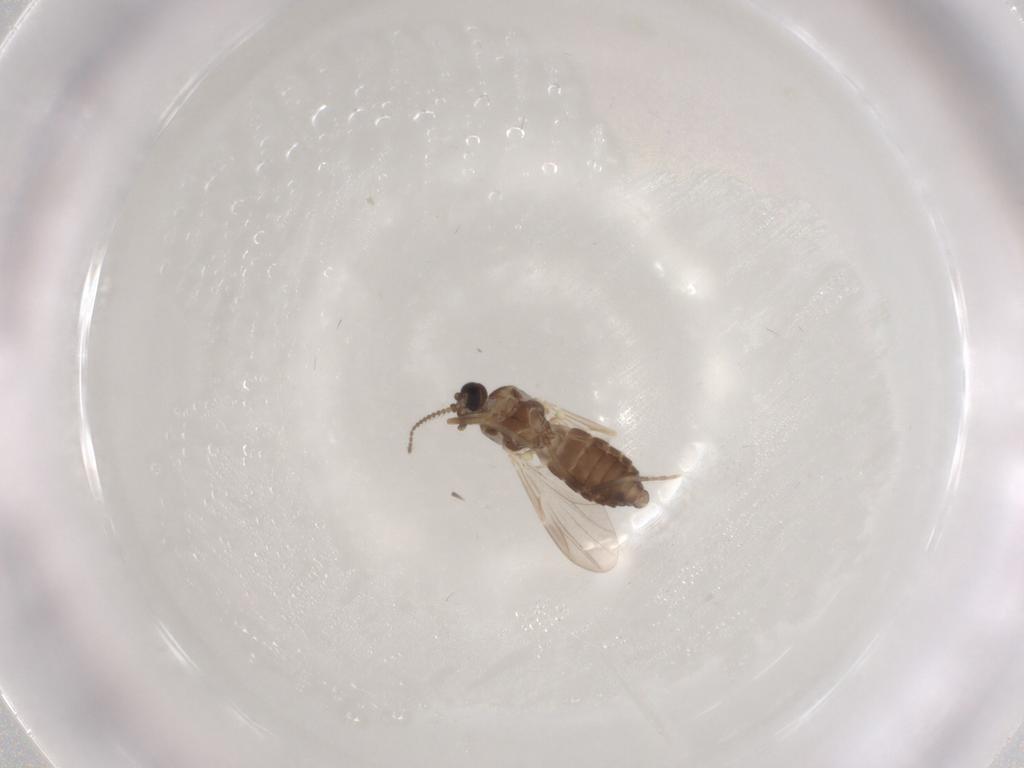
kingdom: Animalia
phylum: Arthropoda
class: Insecta
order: Diptera
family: Ceratopogonidae
